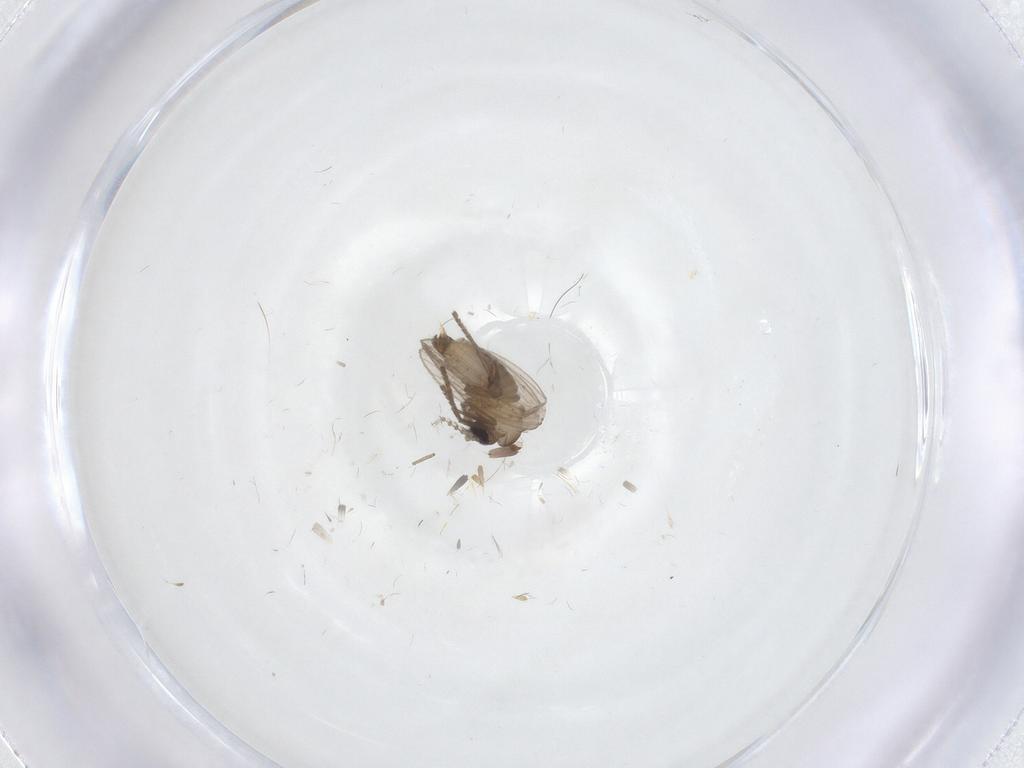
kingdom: Animalia
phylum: Arthropoda
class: Insecta
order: Diptera
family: Psychodidae
